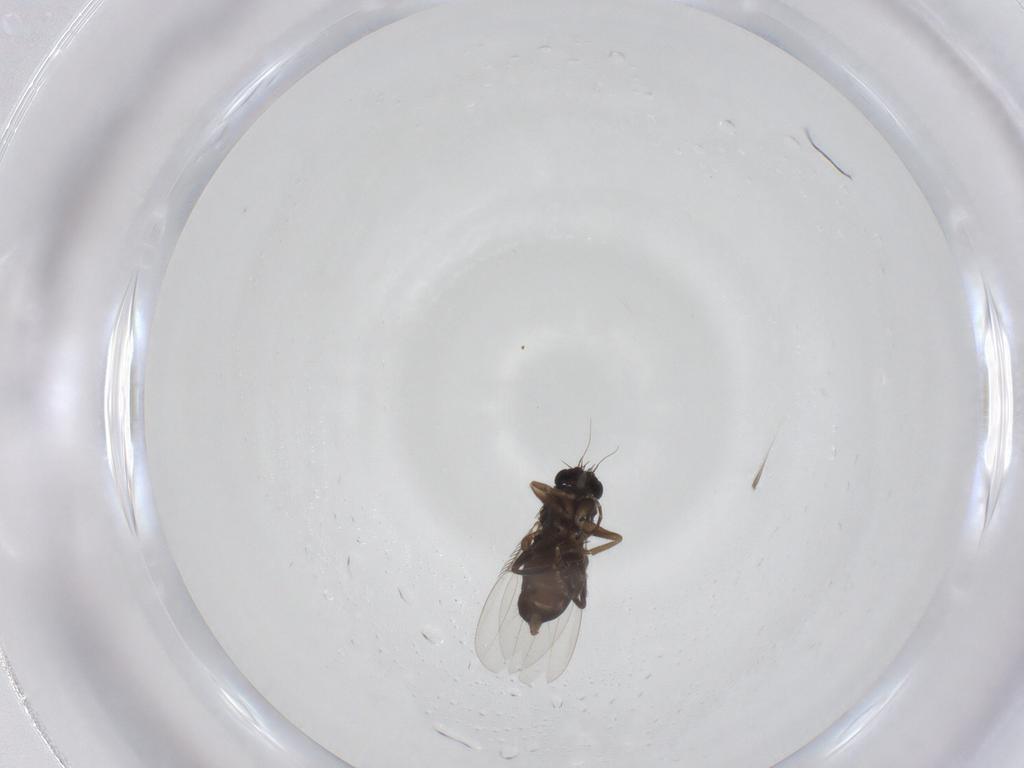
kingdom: Animalia
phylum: Arthropoda
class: Insecta
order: Diptera
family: Phoridae
